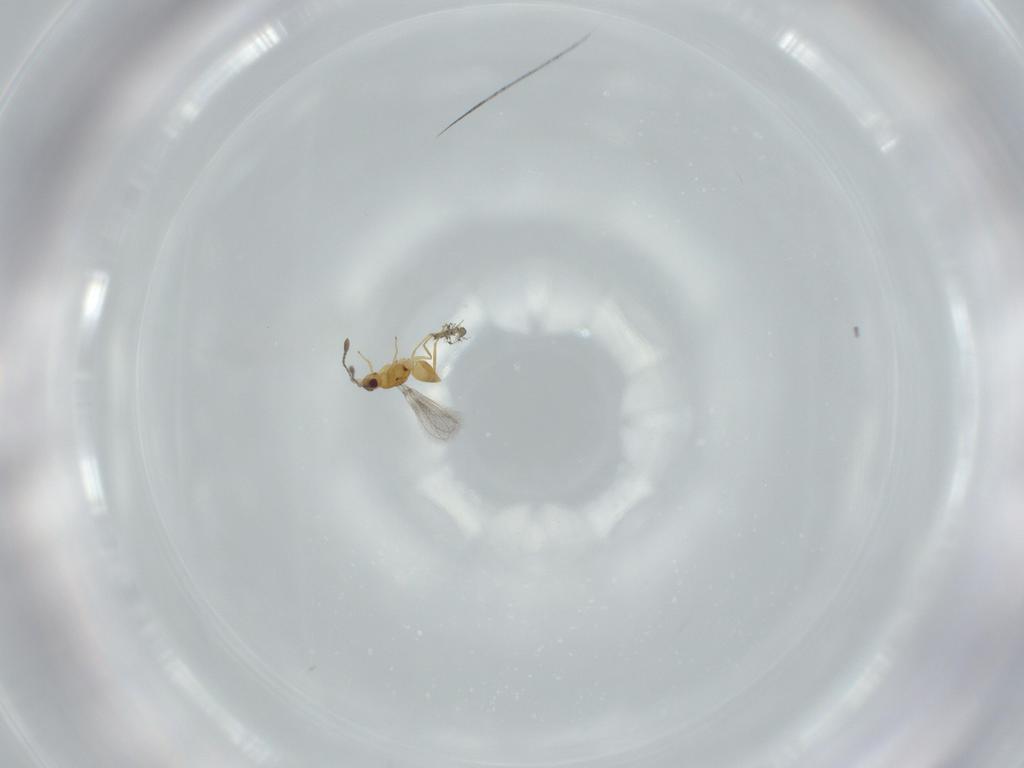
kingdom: Animalia
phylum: Arthropoda
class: Insecta
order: Hymenoptera
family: Mymaridae
